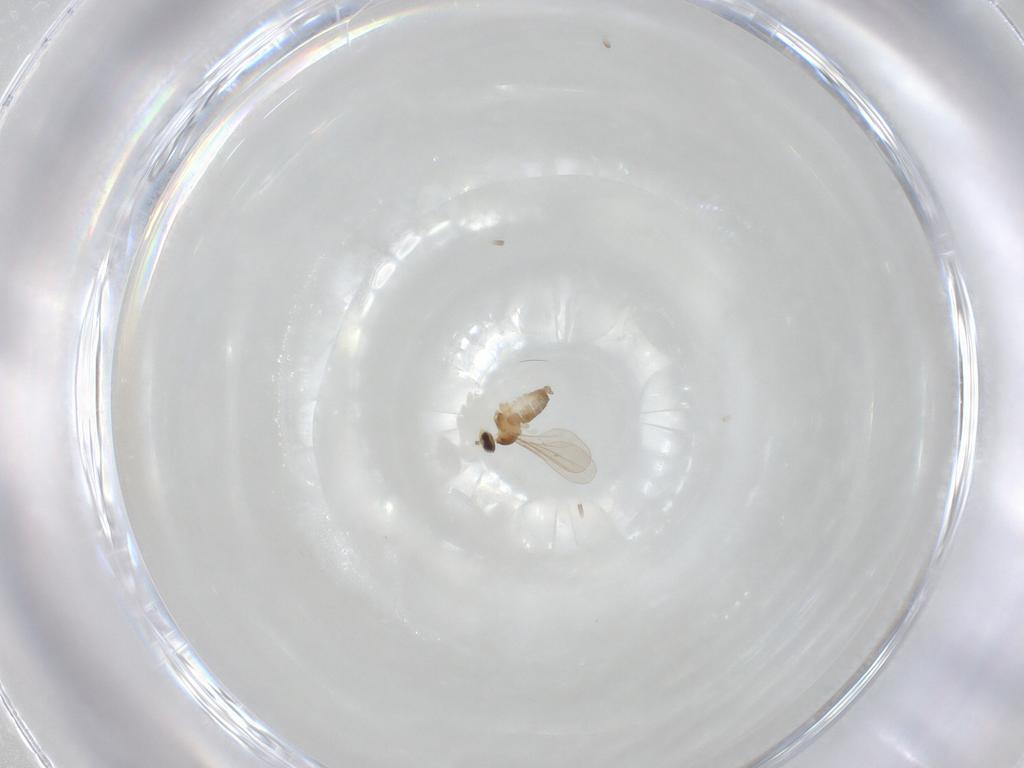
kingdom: Animalia
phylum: Arthropoda
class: Insecta
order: Diptera
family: Cecidomyiidae
